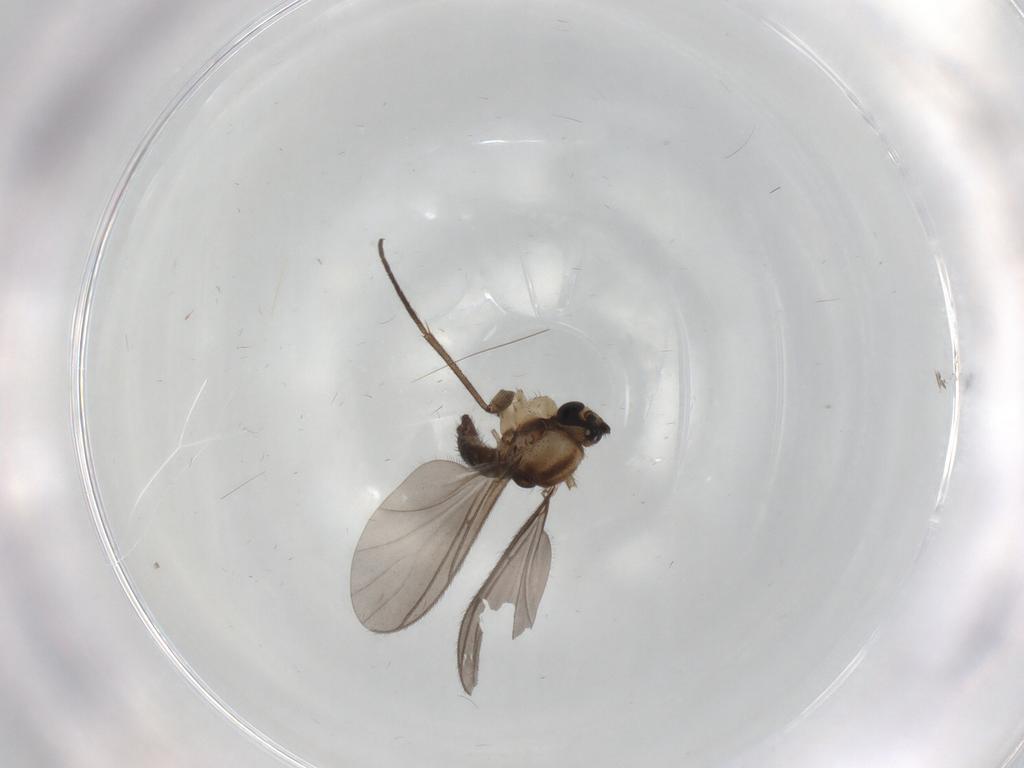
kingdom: Animalia
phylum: Arthropoda
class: Insecta
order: Diptera
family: Sciaridae
